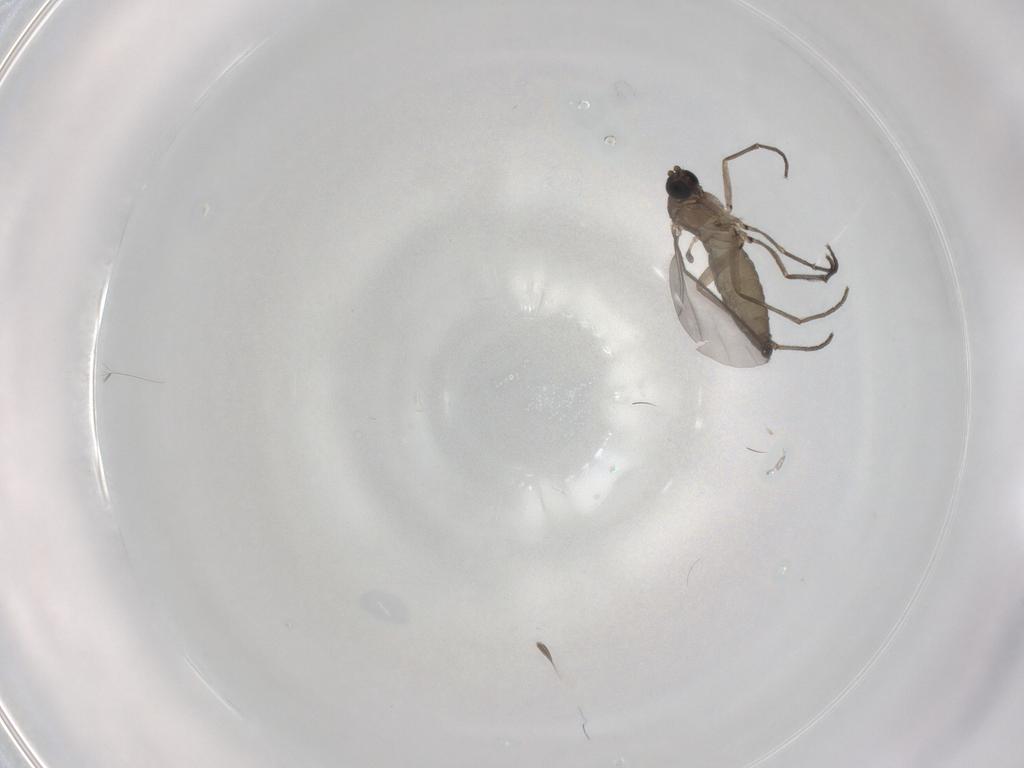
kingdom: Animalia
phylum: Arthropoda
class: Insecta
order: Diptera
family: Sciaridae
